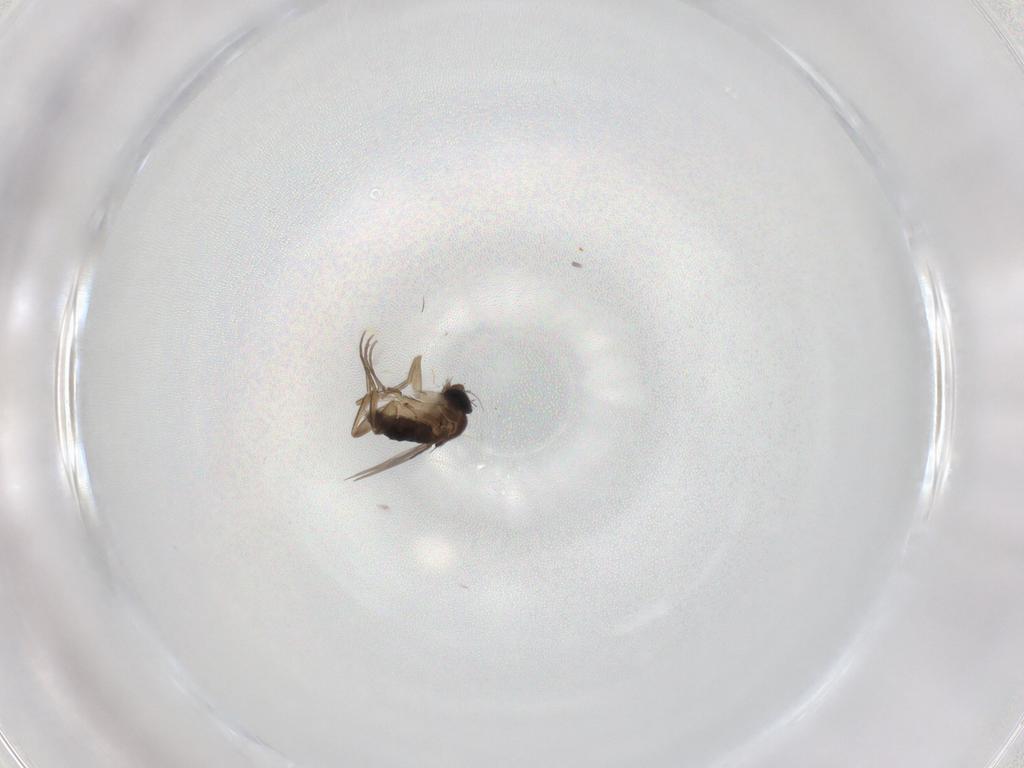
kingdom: Animalia
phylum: Arthropoda
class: Insecta
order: Diptera
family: Phoridae
